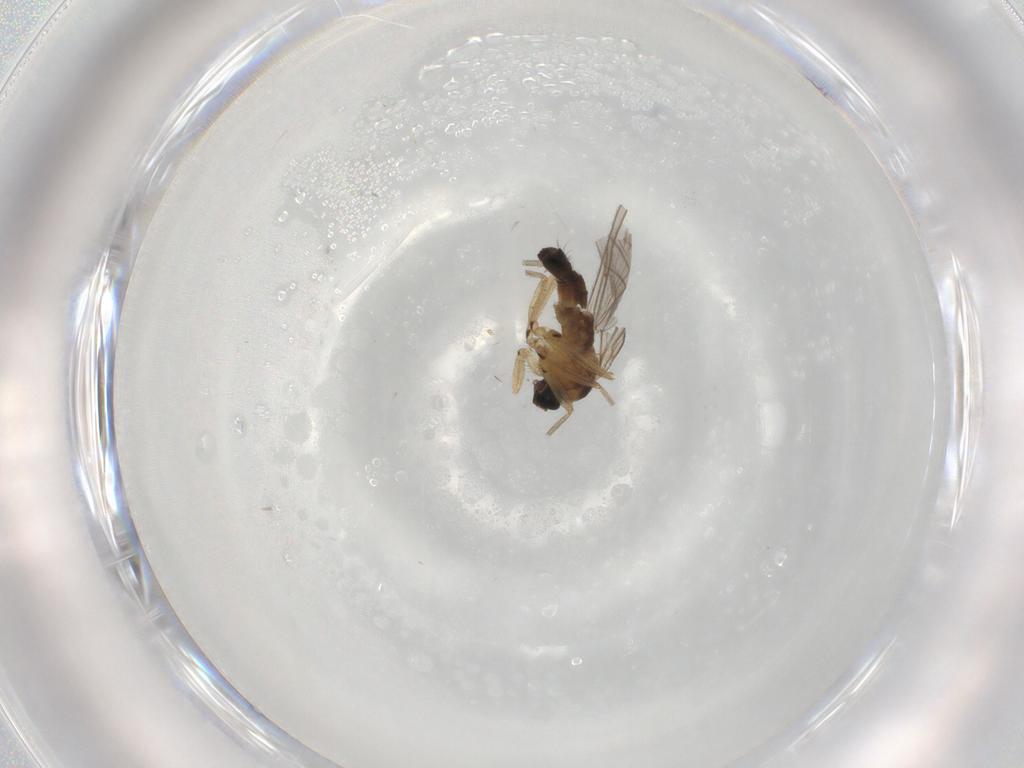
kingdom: Animalia
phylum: Arthropoda
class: Insecta
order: Diptera
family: Sciaridae
